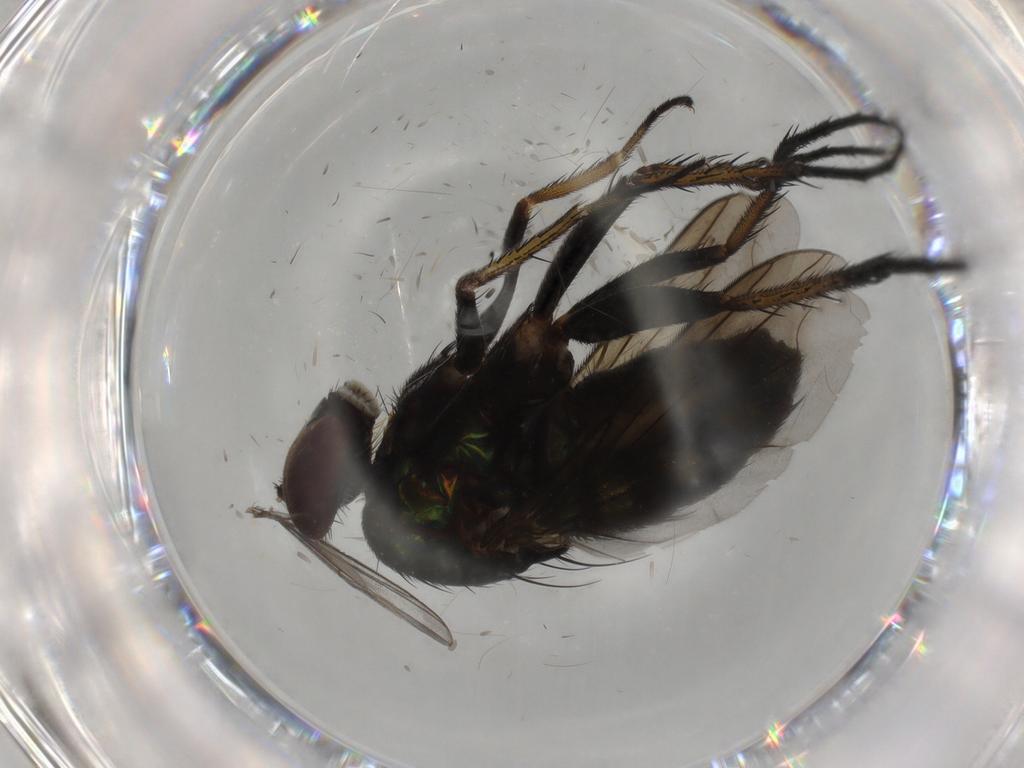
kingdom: Animalia
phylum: Arthropoda
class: Insecta
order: Diptera
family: Dolichopodidae
